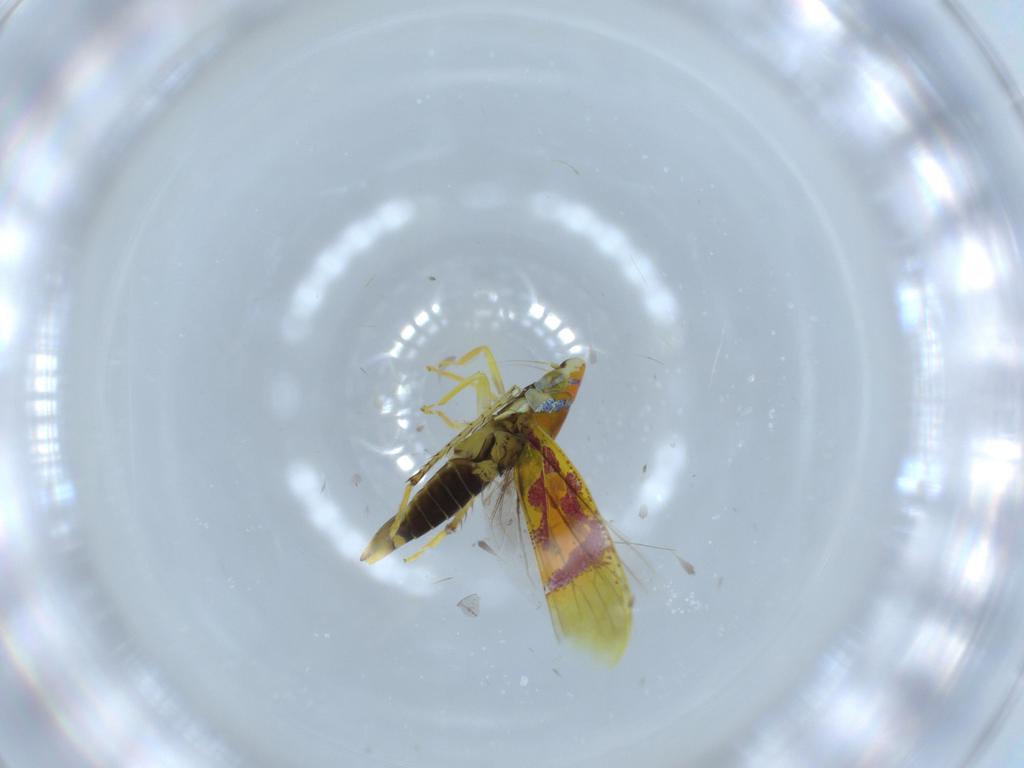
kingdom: Animalia
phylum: Arthropoda
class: Insecta
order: Hemiptera
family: Cicadellidae
